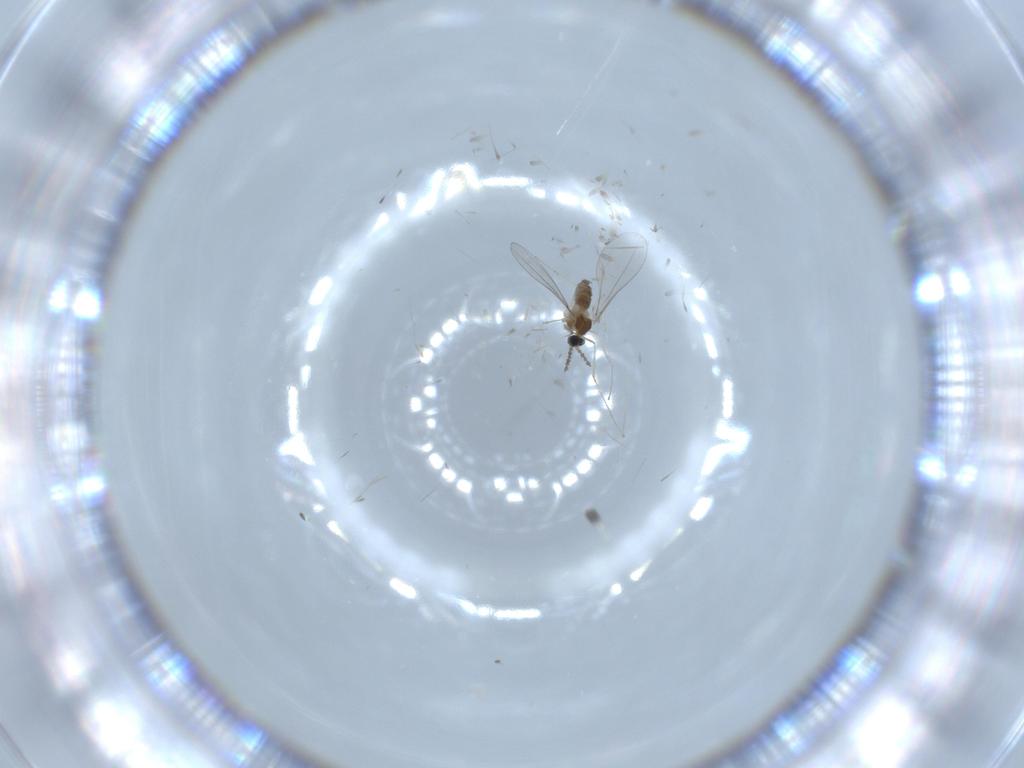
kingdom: Animalia
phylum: Arthropoda
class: Insecta
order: Diptera
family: Cecidomyiidae
